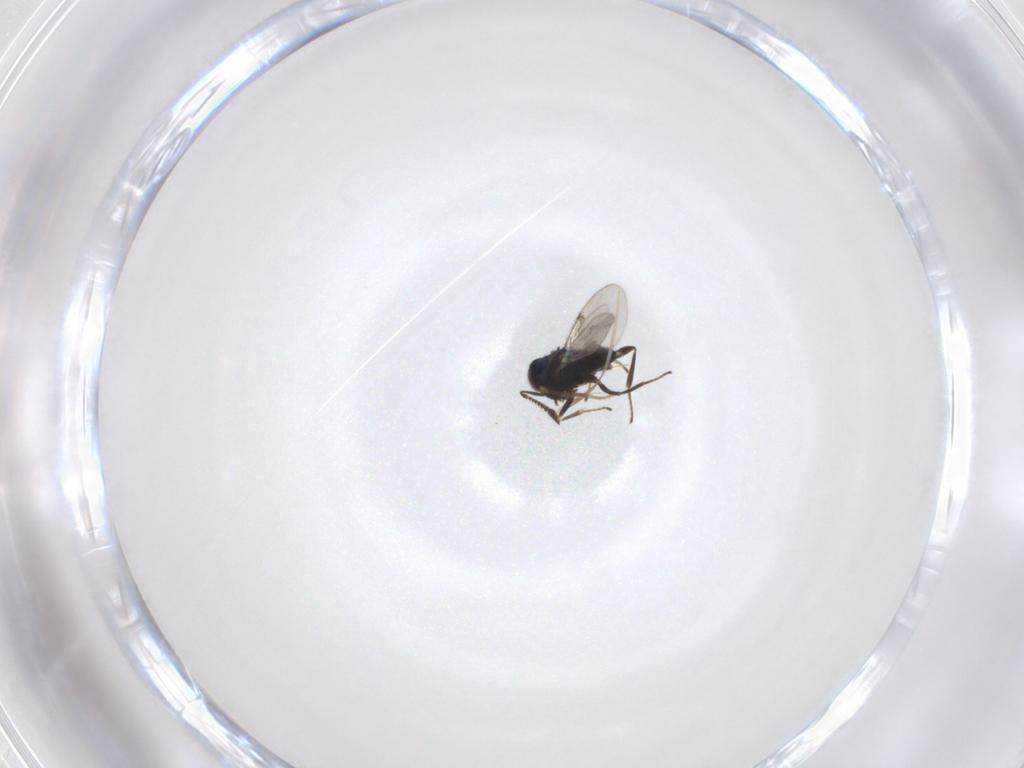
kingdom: Animalia
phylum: Arthropoda
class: Insecta
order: Hymenoptera
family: Encyrtidae
